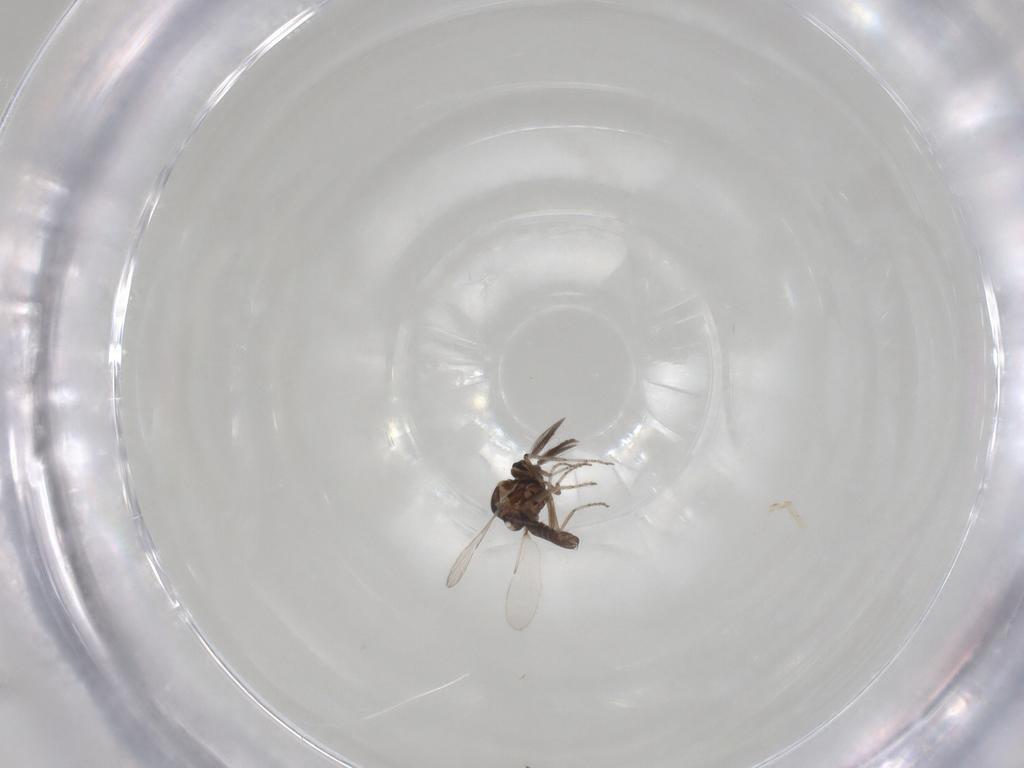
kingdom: Animalia
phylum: Arthropoda
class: Insecta
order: Diptera
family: Ceratopogonidae
